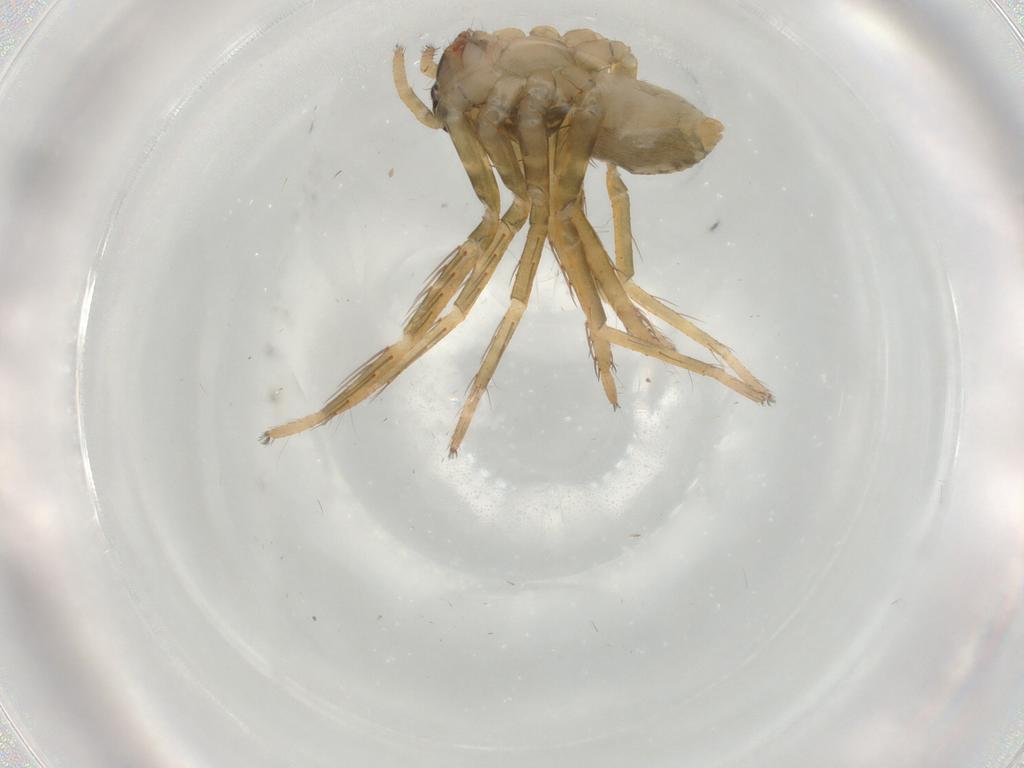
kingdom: Animalia
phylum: Arthropoda
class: Arachnida
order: Araneae
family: Trechaleidae
